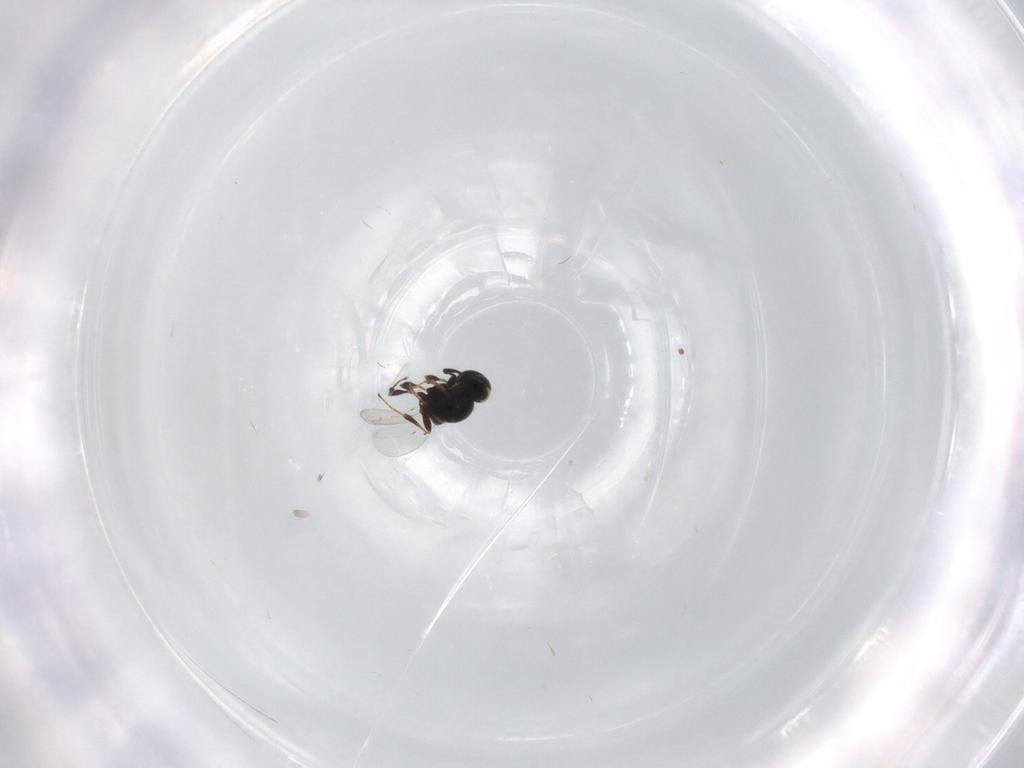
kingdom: Animalia
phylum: Arthropoda
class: Insecta
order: Hymenoptera
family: Platygastridae
